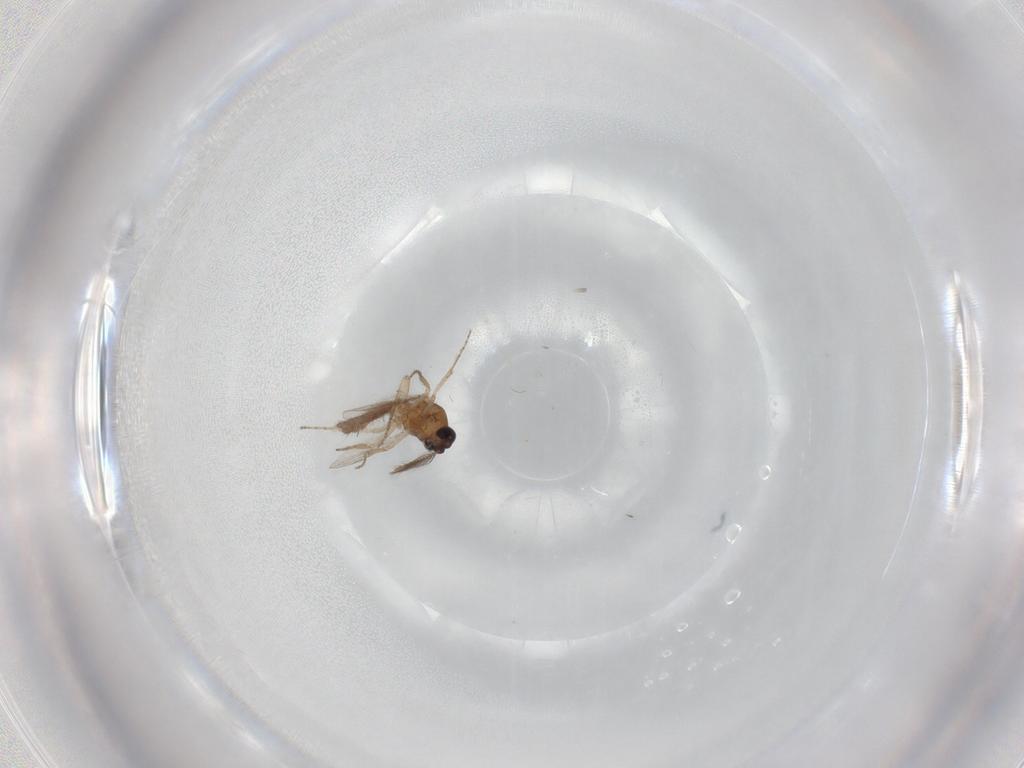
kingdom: Animalia
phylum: Arthropoda
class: Insecta
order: Diptera
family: Ceratopogonidae
